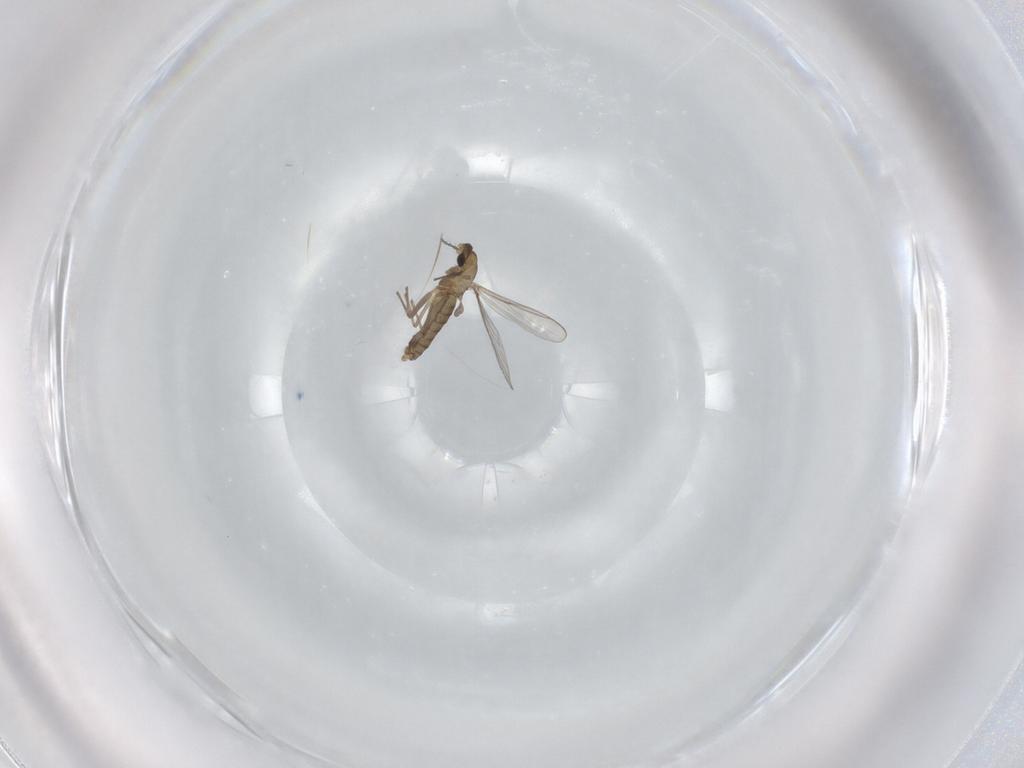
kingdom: Animalia
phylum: Arthropoda
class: Insecta
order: Diptera
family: Chironomidae
